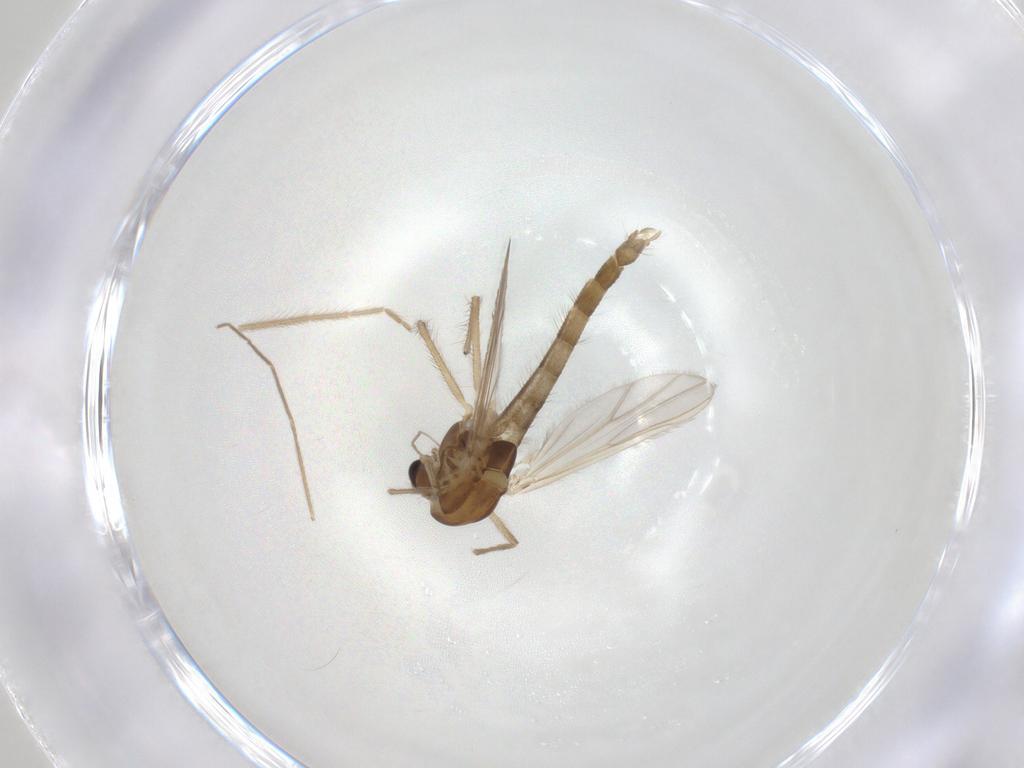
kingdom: Animalia
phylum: Arthropoda
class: Insecta
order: Diptera
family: Chironomidae
